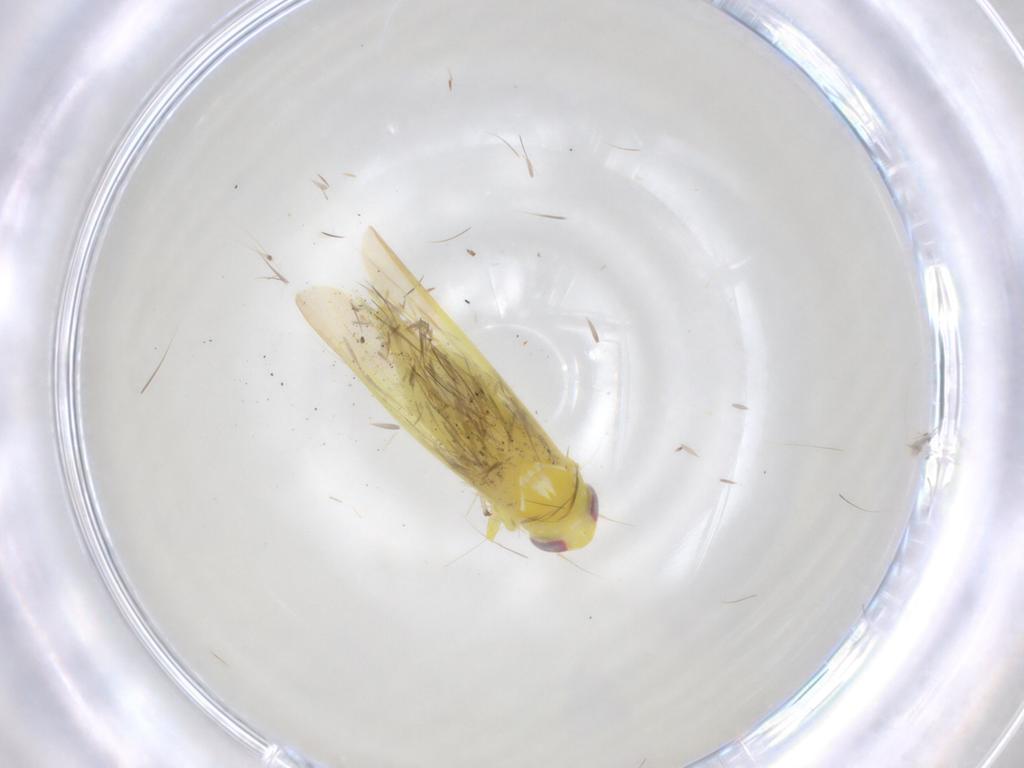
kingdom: Animalia
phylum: Arthropoda
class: Insecta
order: Hemiptera
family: Cicadellidae
